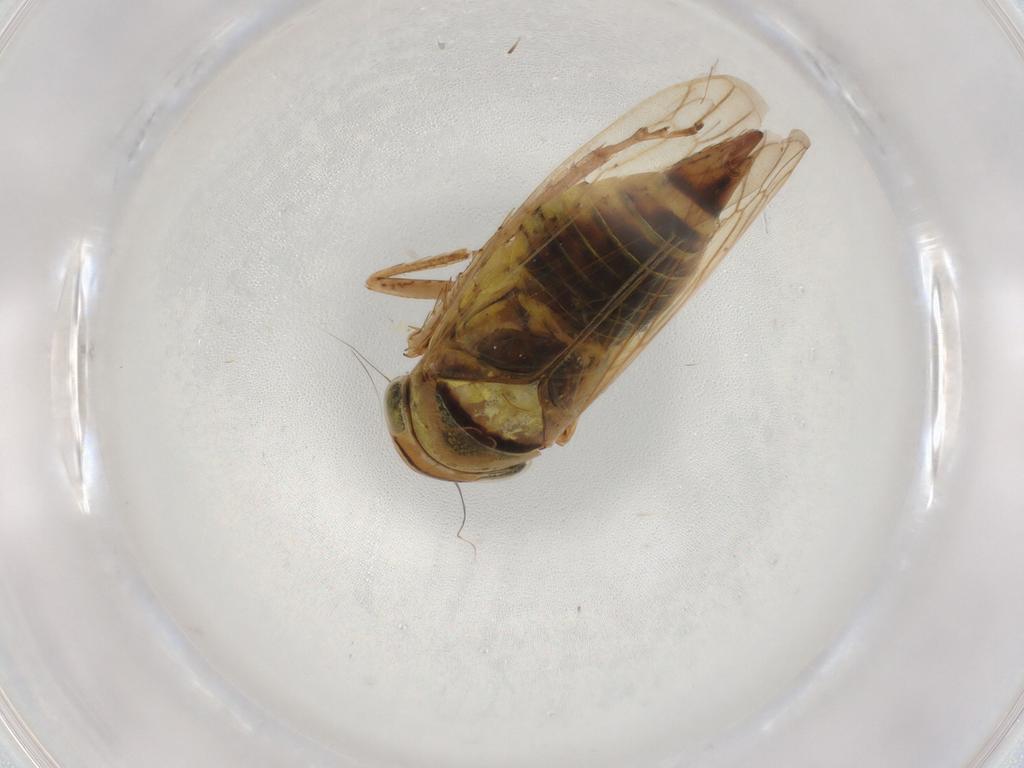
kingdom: Animalia
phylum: Arthropoda
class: Insecta
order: Hemiptera
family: Cicadellidae
